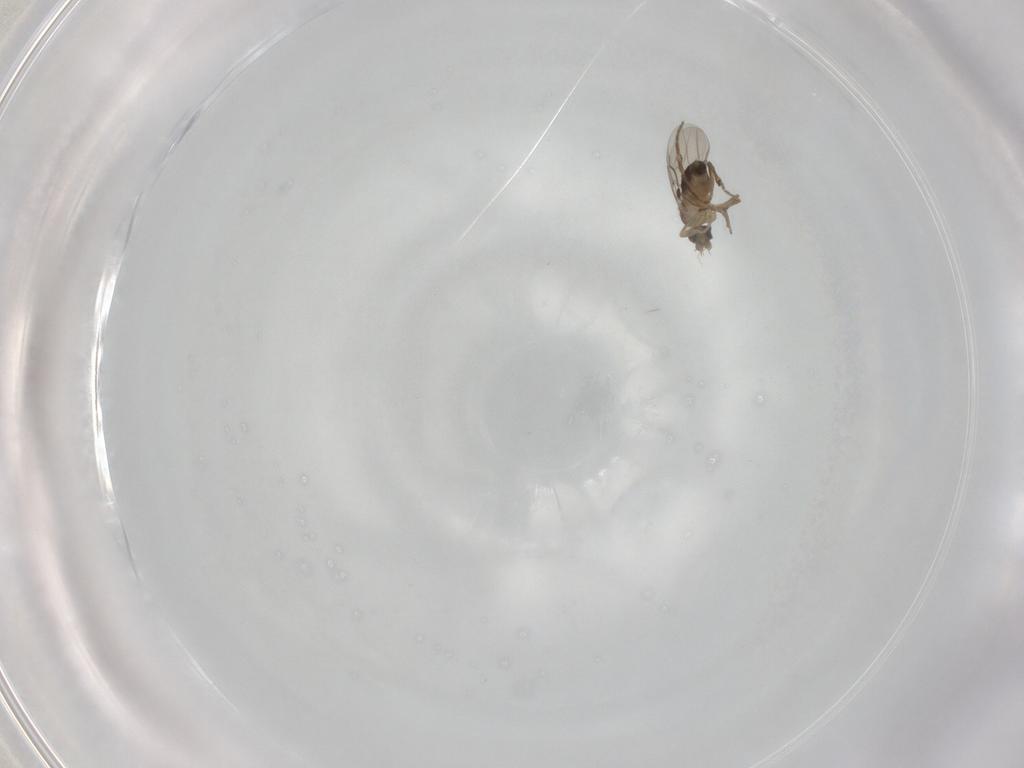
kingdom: Animalia
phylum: Arthropoda
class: Insecta
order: Diptera
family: Phoridae
